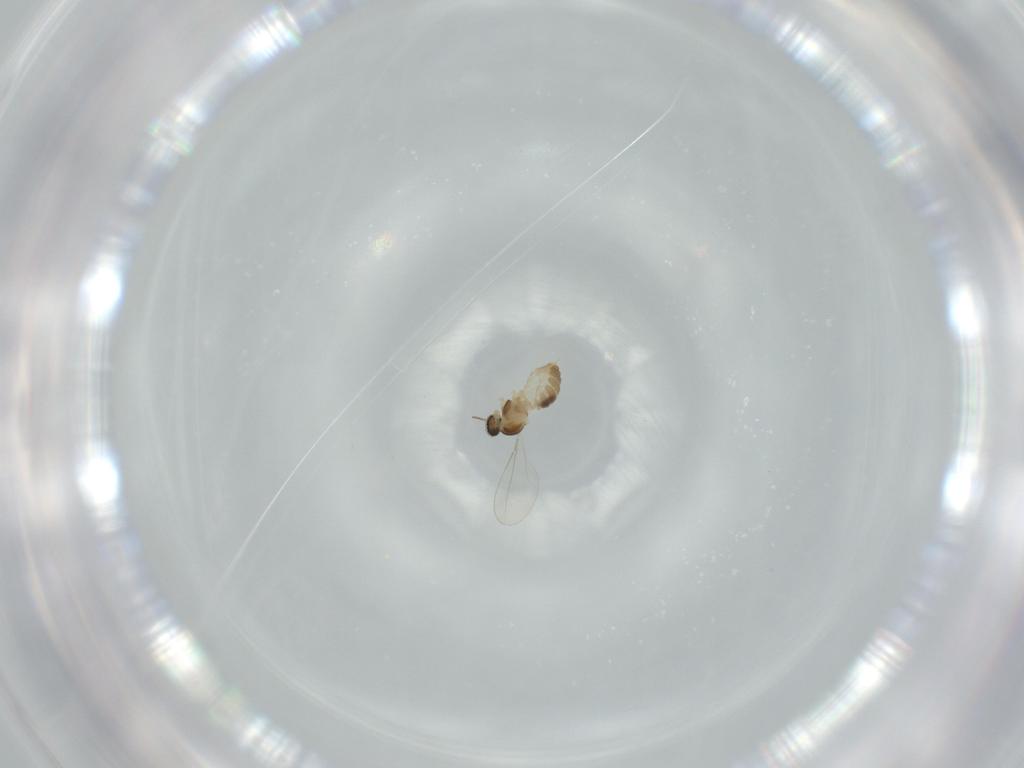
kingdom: Animalia
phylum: Arthropoda
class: Insecta
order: Diptera
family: Cecidomyiidae
